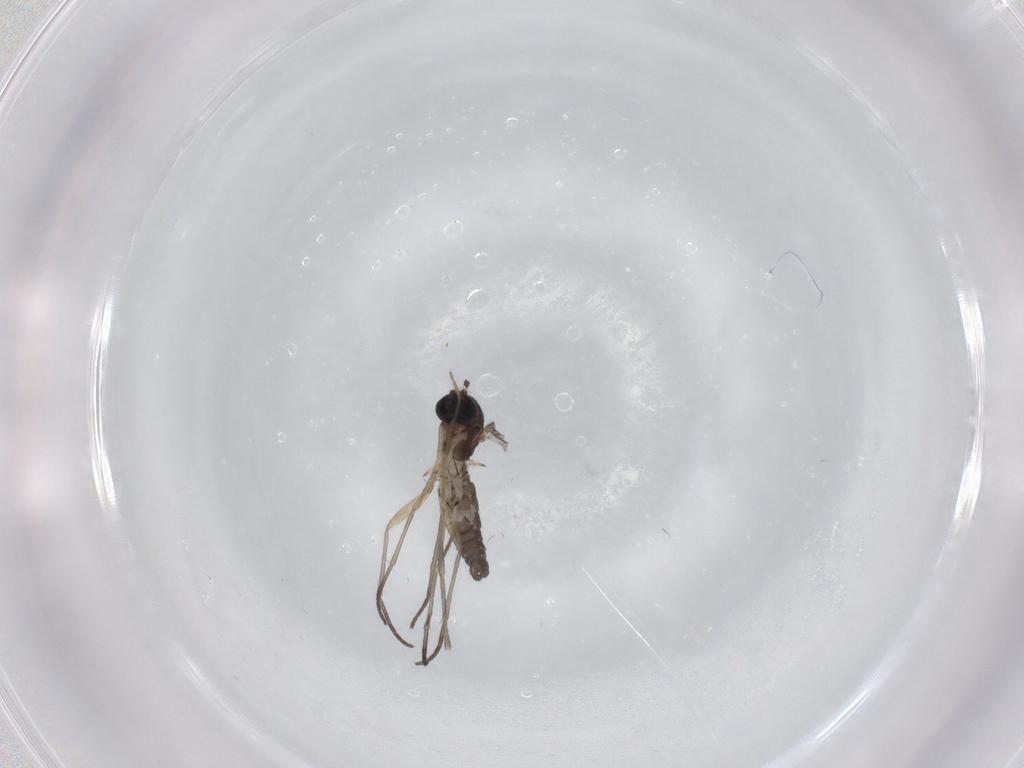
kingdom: Animalia
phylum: Arthropoda
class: Insecta
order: Diptera
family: Sciaridae
